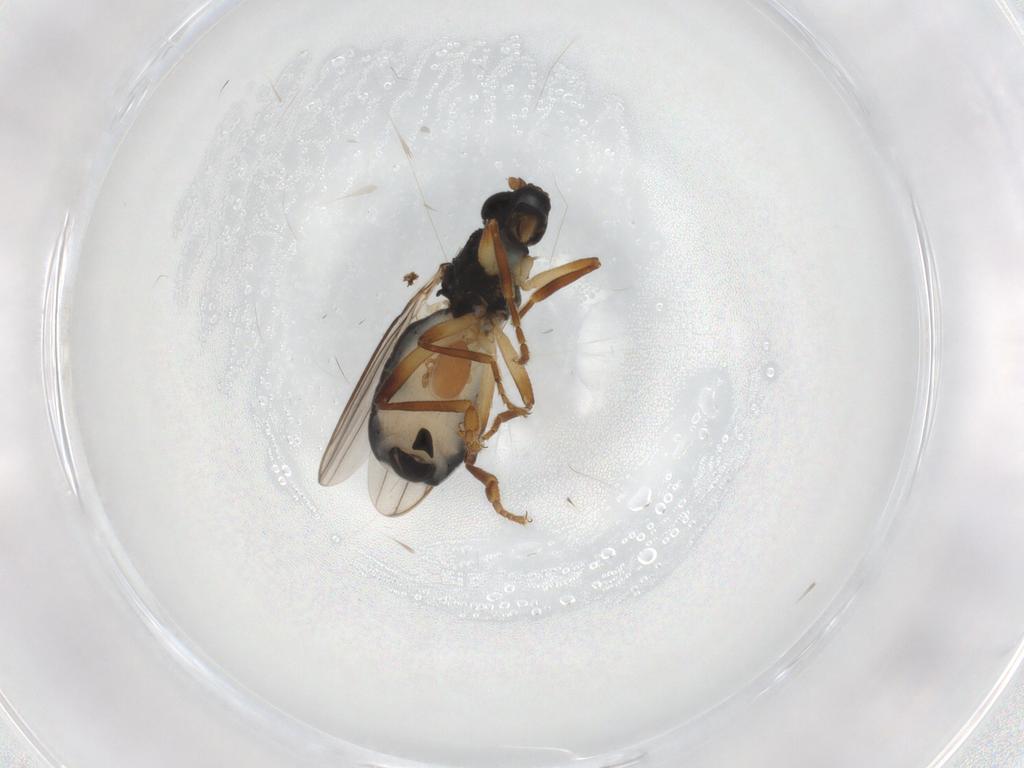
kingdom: Animalia
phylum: Arthropoda
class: Insecta
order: Diptera
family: Sphaeroceridae
